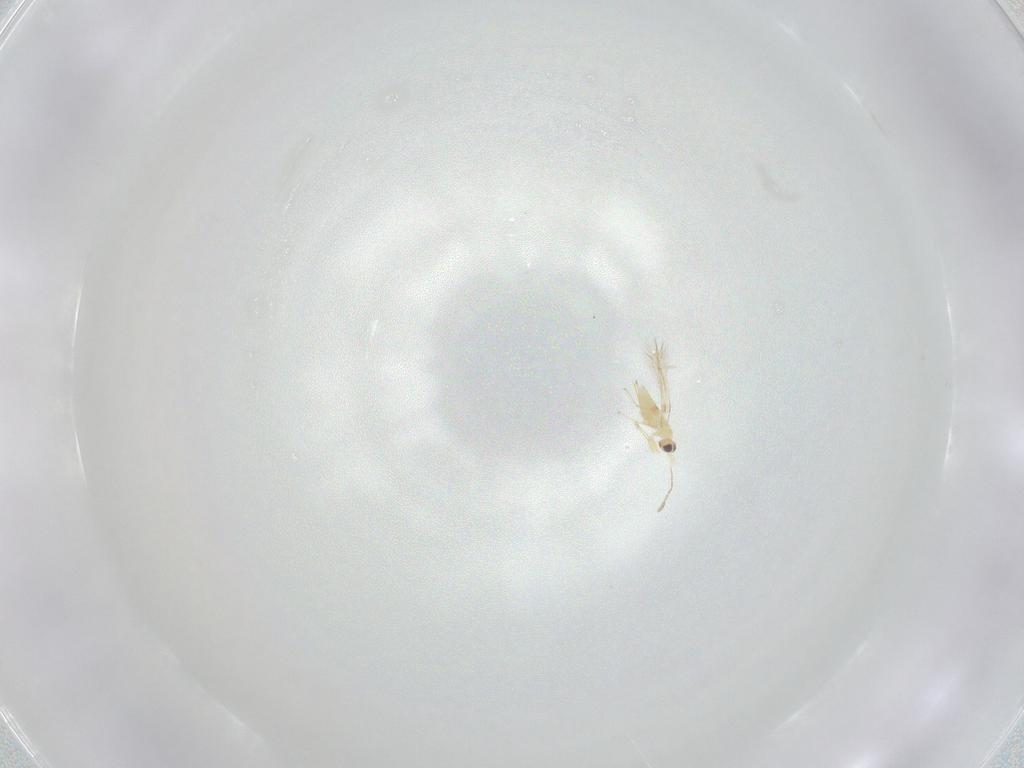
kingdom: Animalia
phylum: Arthropoda
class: Insecta
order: Hymenoptera
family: Mymaridae
